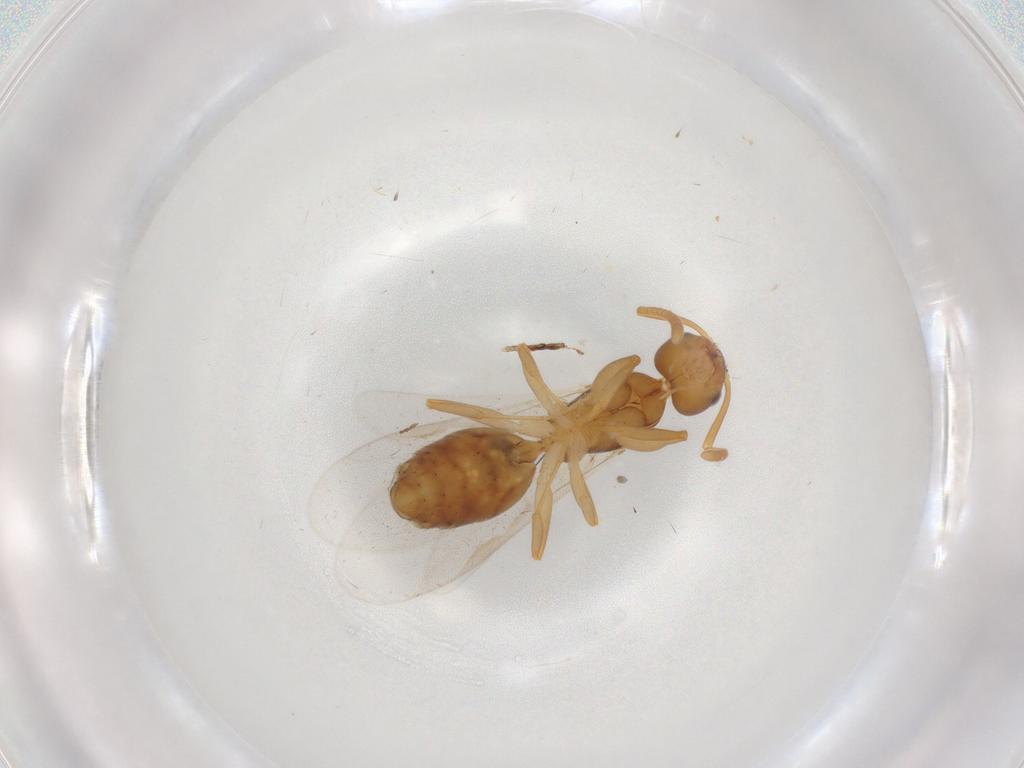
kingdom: Animalia
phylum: Arthropoda
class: Insecta
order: Hymenoptera
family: Formicidae
